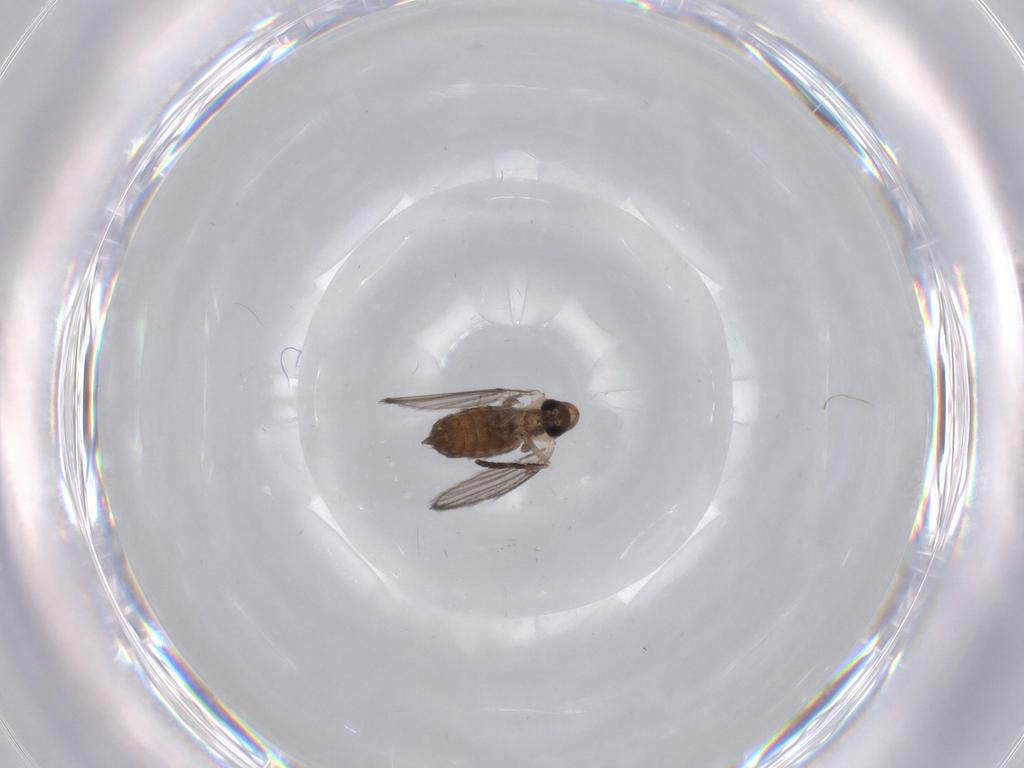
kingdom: Animalia
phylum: Arthropoda
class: Insecta
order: Diptera
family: Psychodidae
